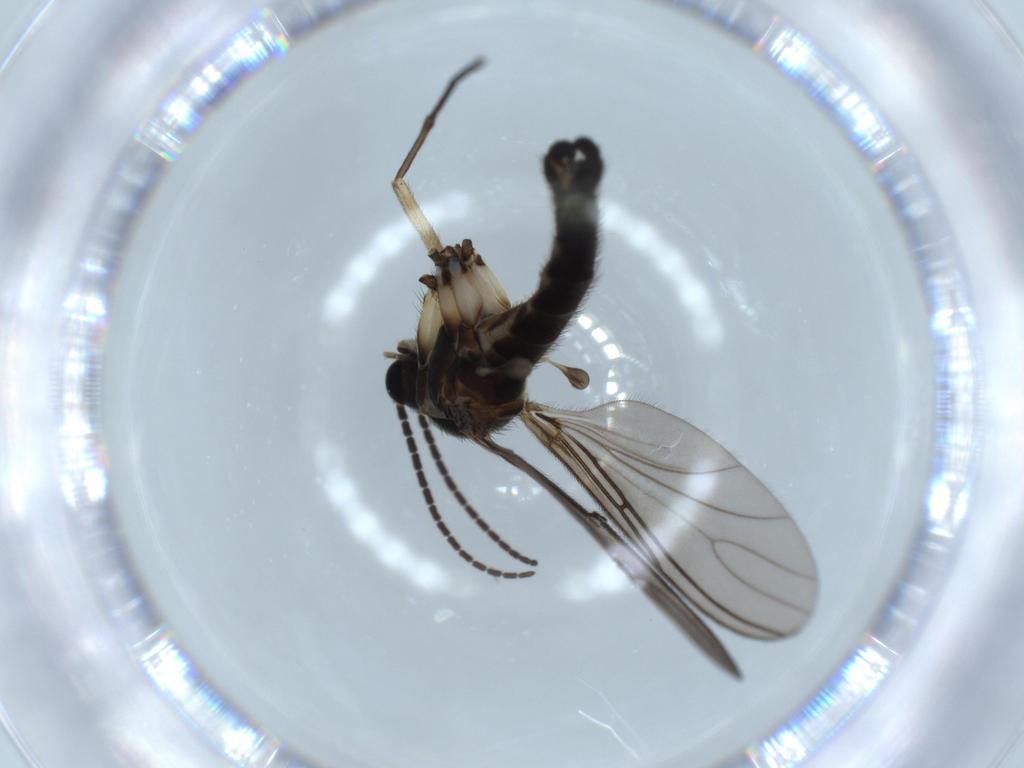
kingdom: Animalia
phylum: Arthropoda
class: Insecta
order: Diptera
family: Sciaridae
